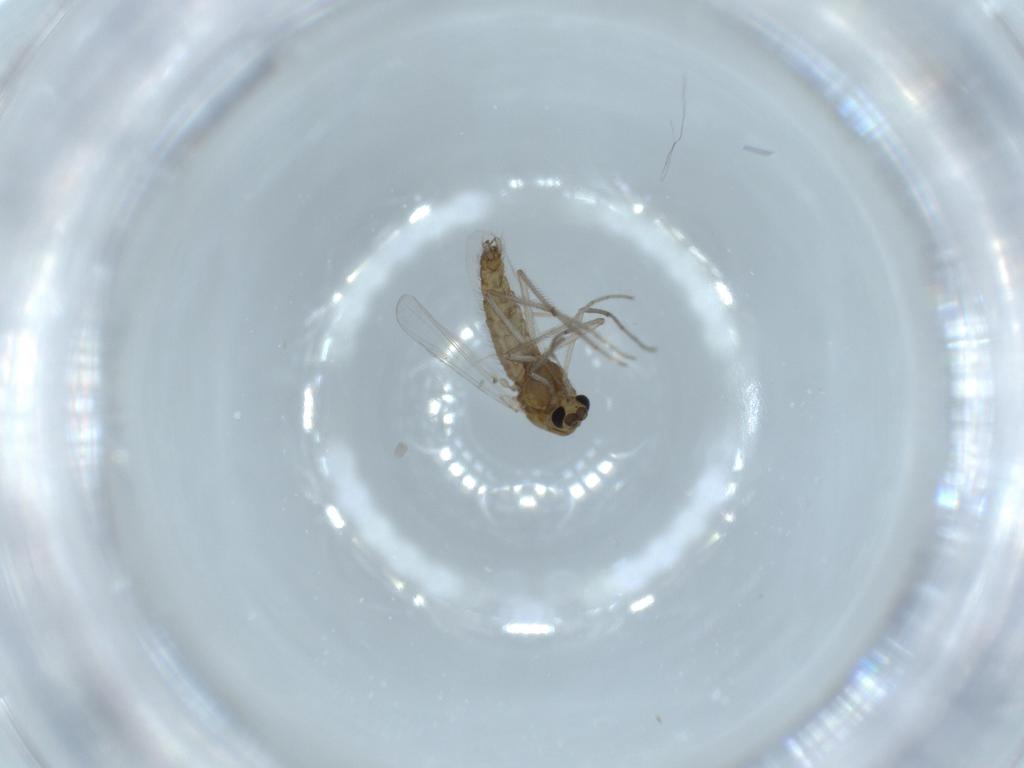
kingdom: Animalia
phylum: Arthropoda
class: Insecta
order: Diptera
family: Chironomidae
